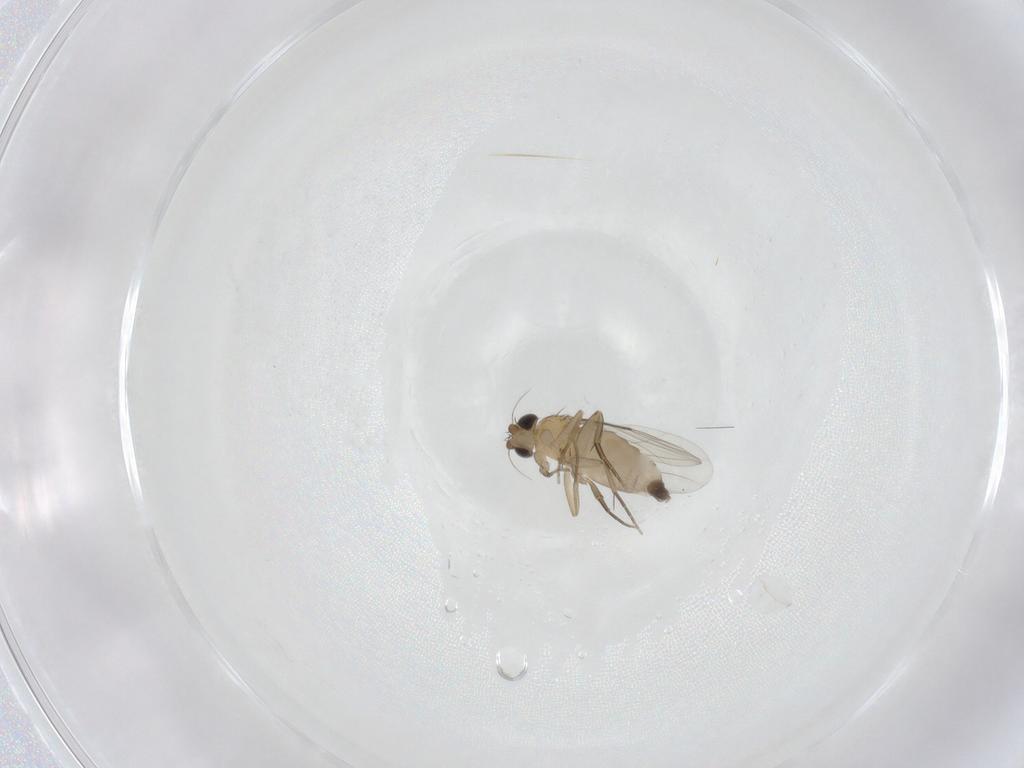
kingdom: Animalia
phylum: Arthropoda
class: Insecta
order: Diptera
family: Phoridae
